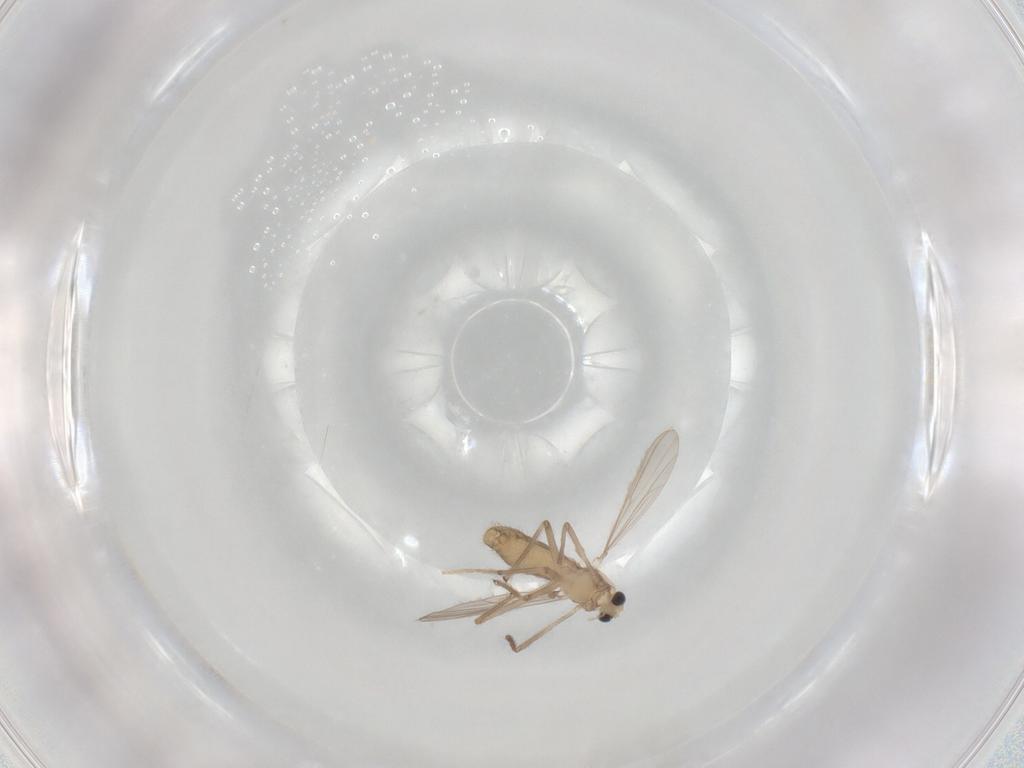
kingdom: Animalia
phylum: Arthropoda
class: Insecta
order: Diptera
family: Chironomidae
